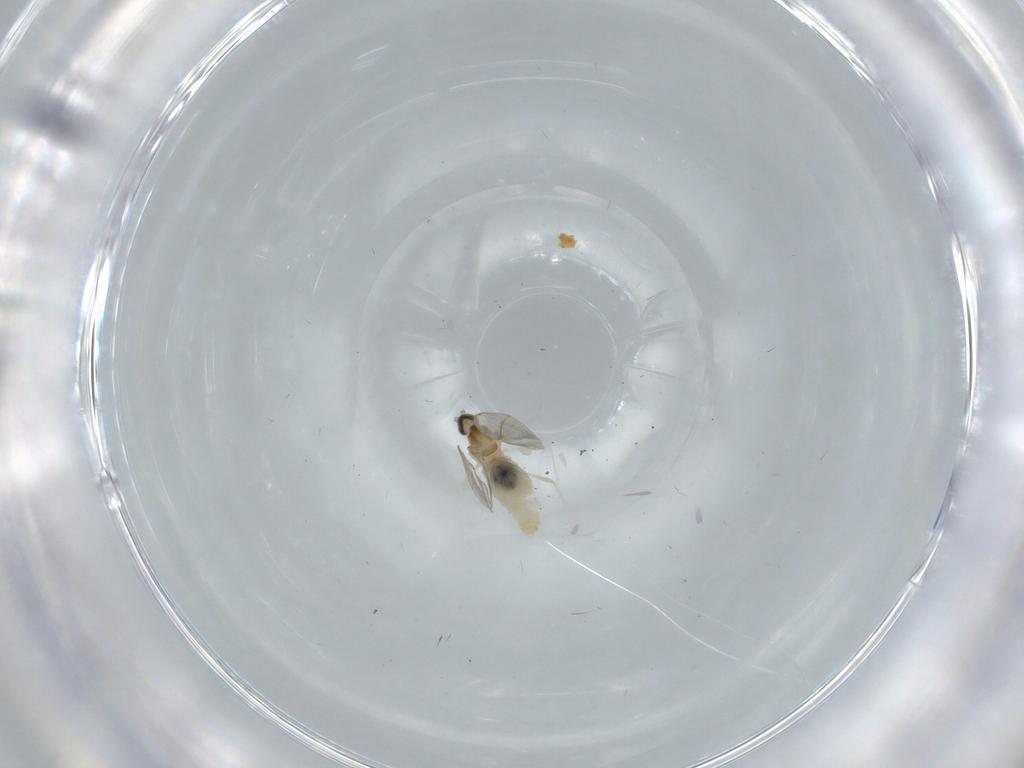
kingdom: Animalia
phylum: Arthropoda
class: Insecta
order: Diptera
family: Cecidomyiidae
